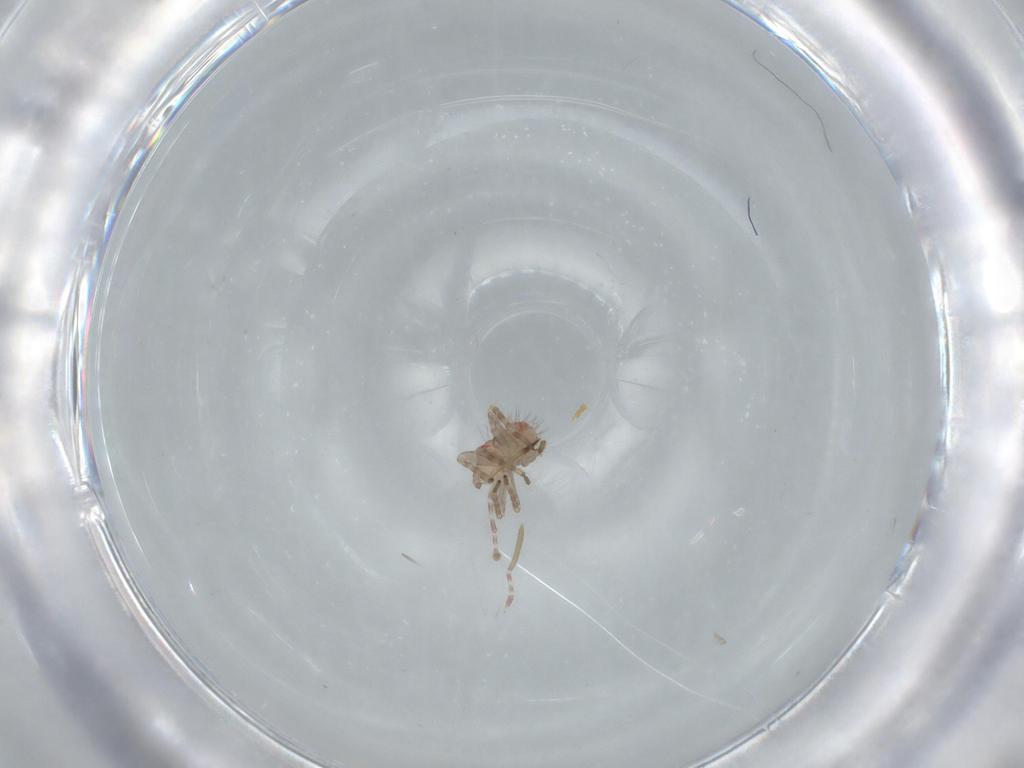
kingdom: Animalia
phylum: Arthropoda
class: Insecta
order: Hemiptera
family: Miridae
